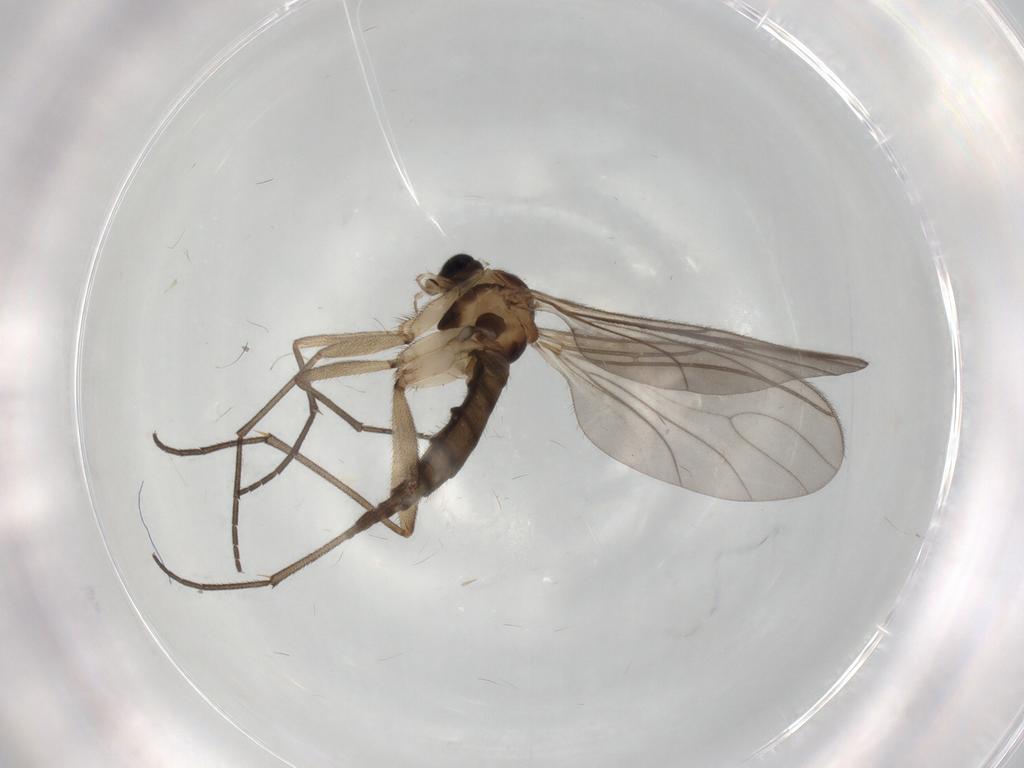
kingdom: Animalia
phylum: Arthropoda
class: Insecta
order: Diptera
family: Sciaridae
